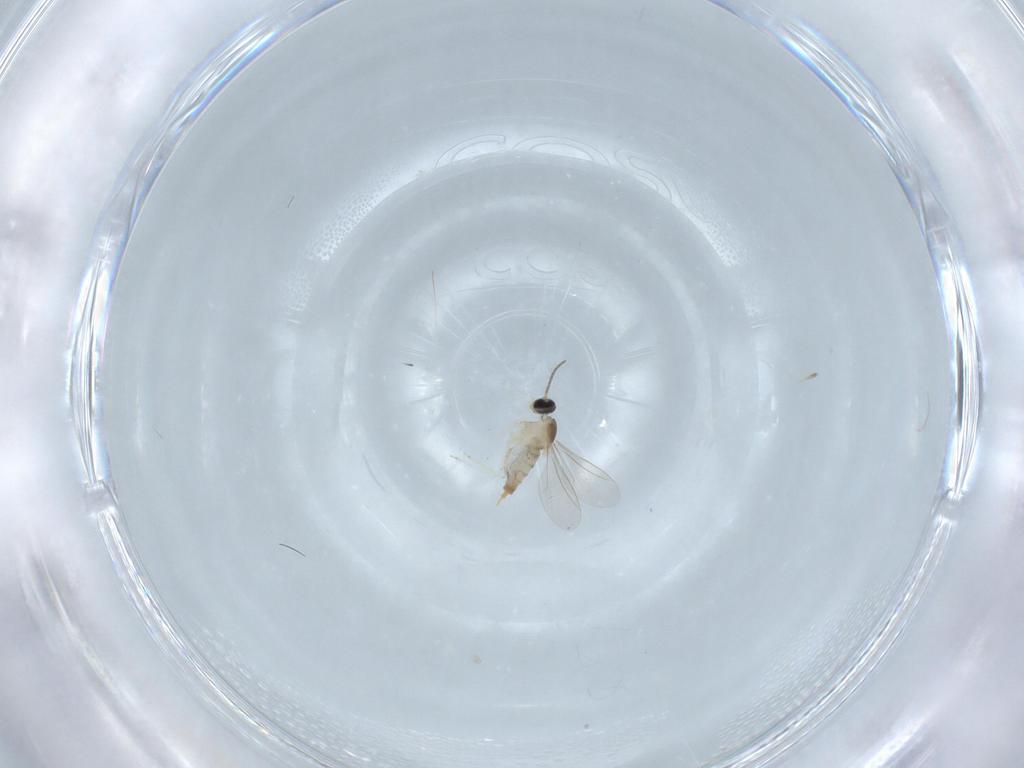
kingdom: Animalia
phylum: Arthropoda
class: Insecta
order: Diptera
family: Cecidomyiidae
